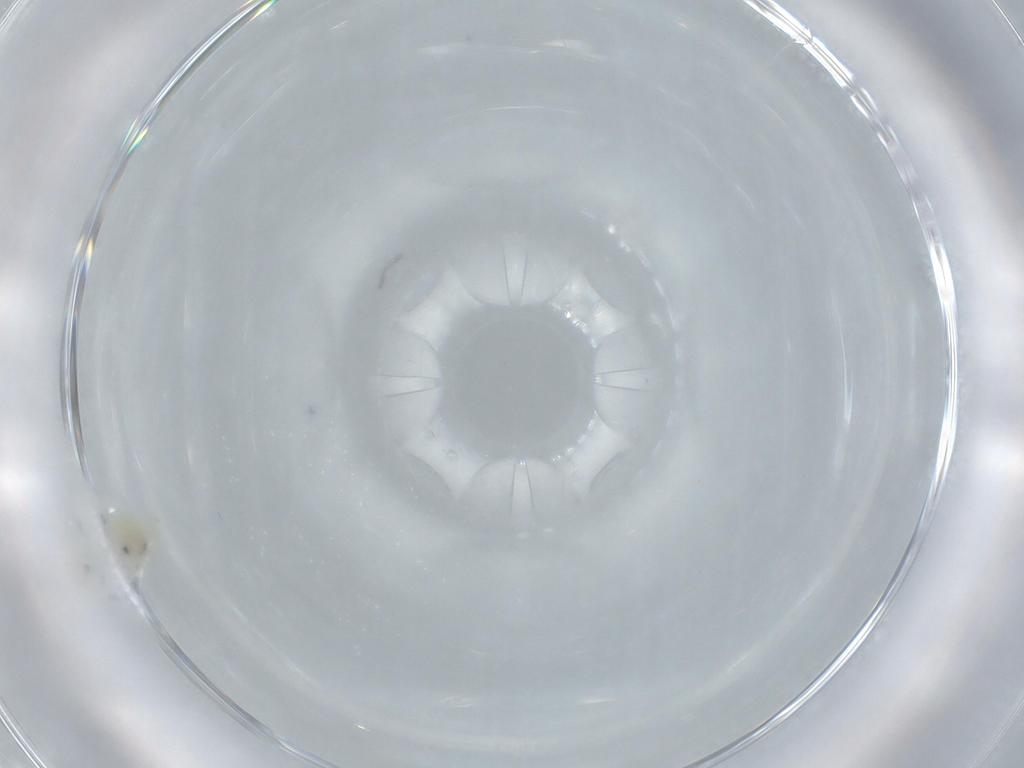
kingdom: Animalia
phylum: Arthropoda
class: Insecta
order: Hemiptera
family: Aleyrodidae
